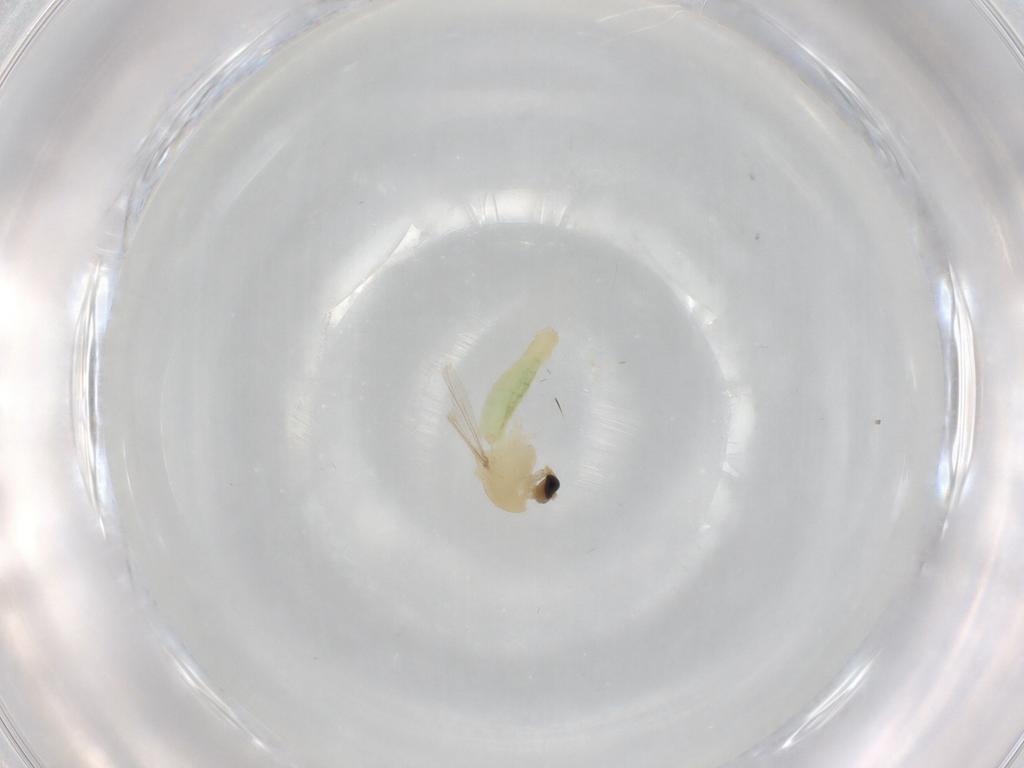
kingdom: Animalia
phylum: Arthropoda
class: Insecta
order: Diptera
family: Chironomidae
